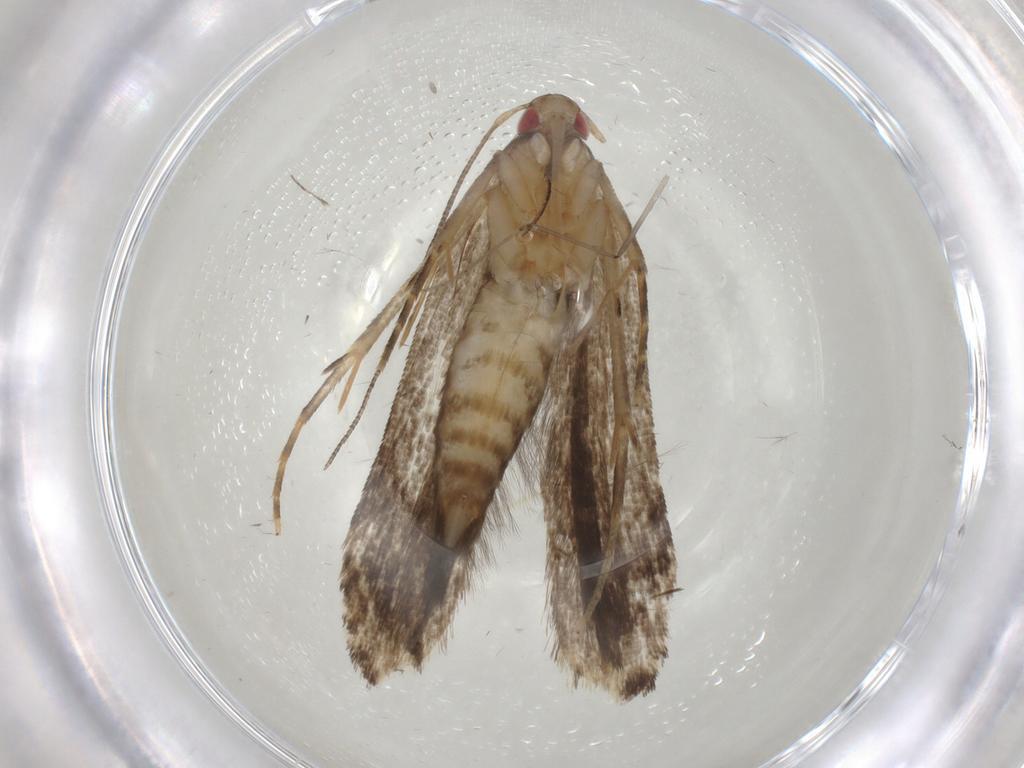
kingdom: Animalia
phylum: Arthropoda
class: Insecta
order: Lepidoptera
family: Gelechiidae
